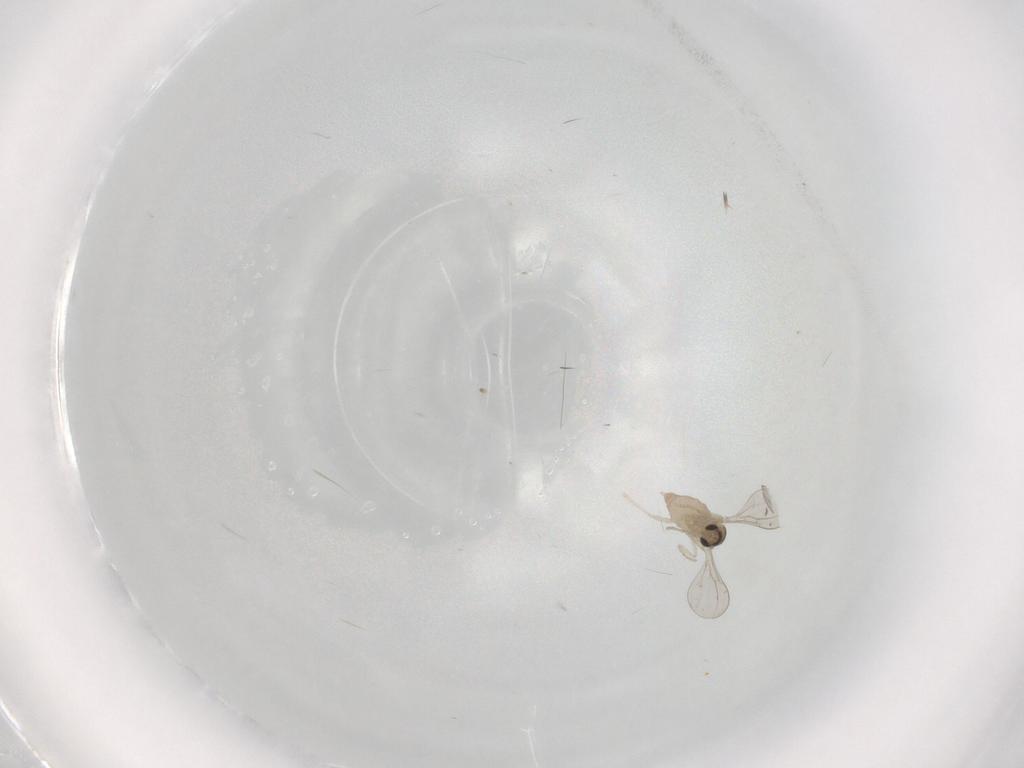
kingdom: Animalia
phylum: Arthropoda
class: Insecta
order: Diptera
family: Cecidomyiidae
